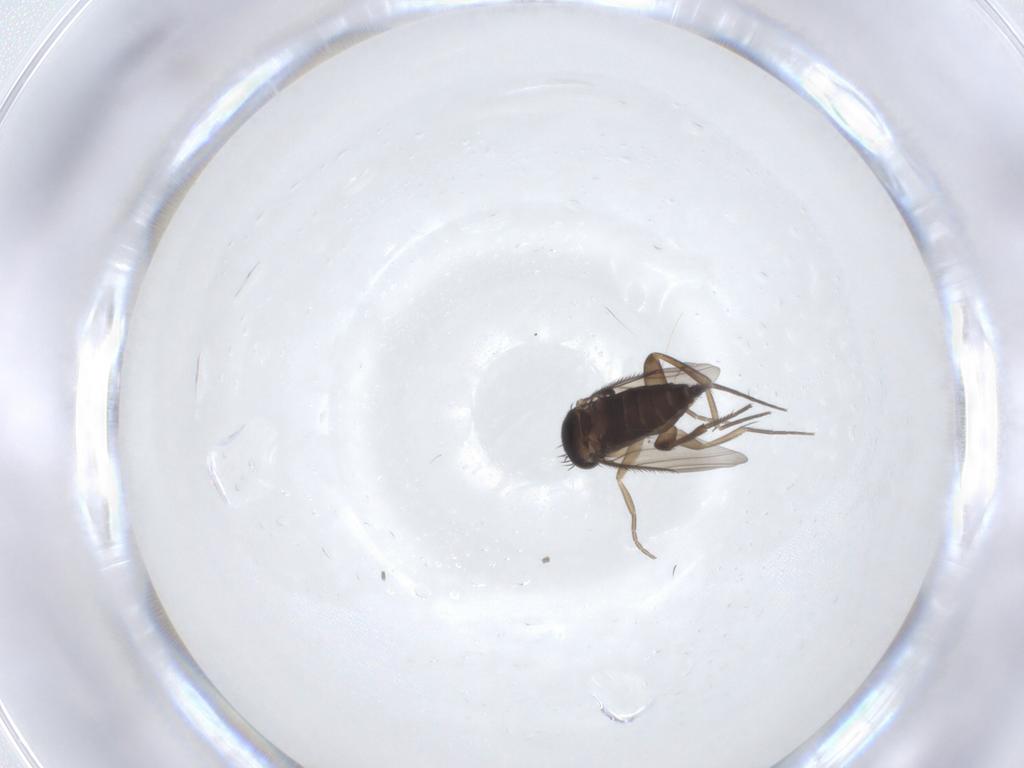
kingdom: Animalia
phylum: Arthropoda
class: Insecta
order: Diptera
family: Phoridae
